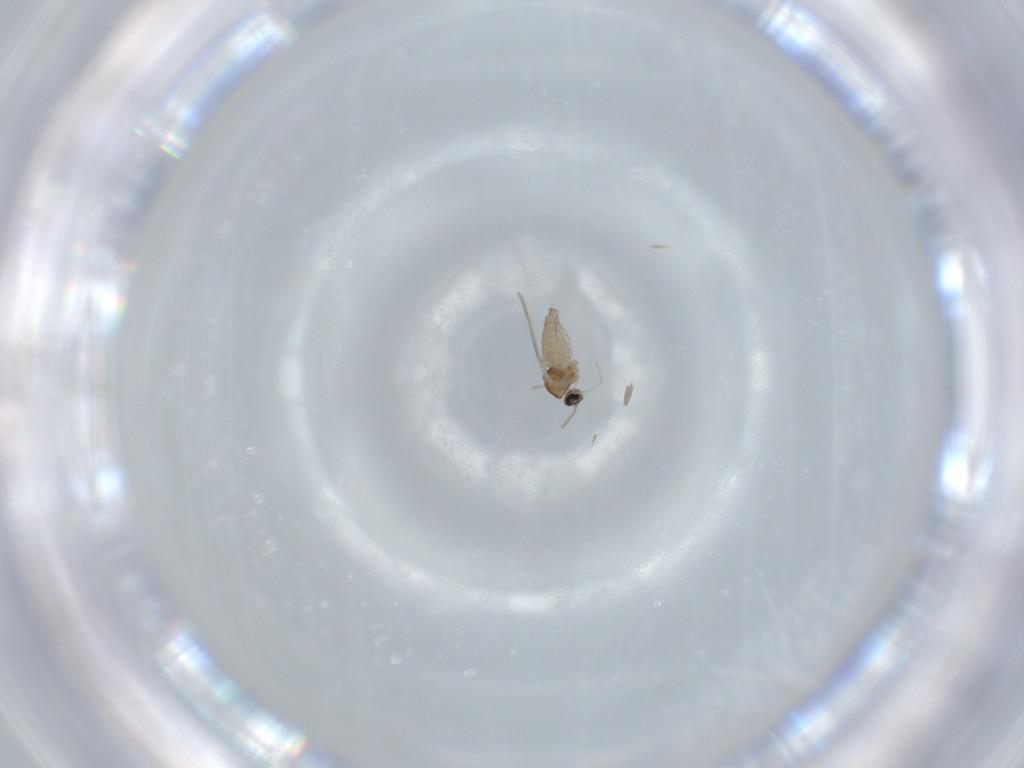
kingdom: Animalia
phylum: Arthropoda
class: Insecta
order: Diptera
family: Cecidomyiidae
